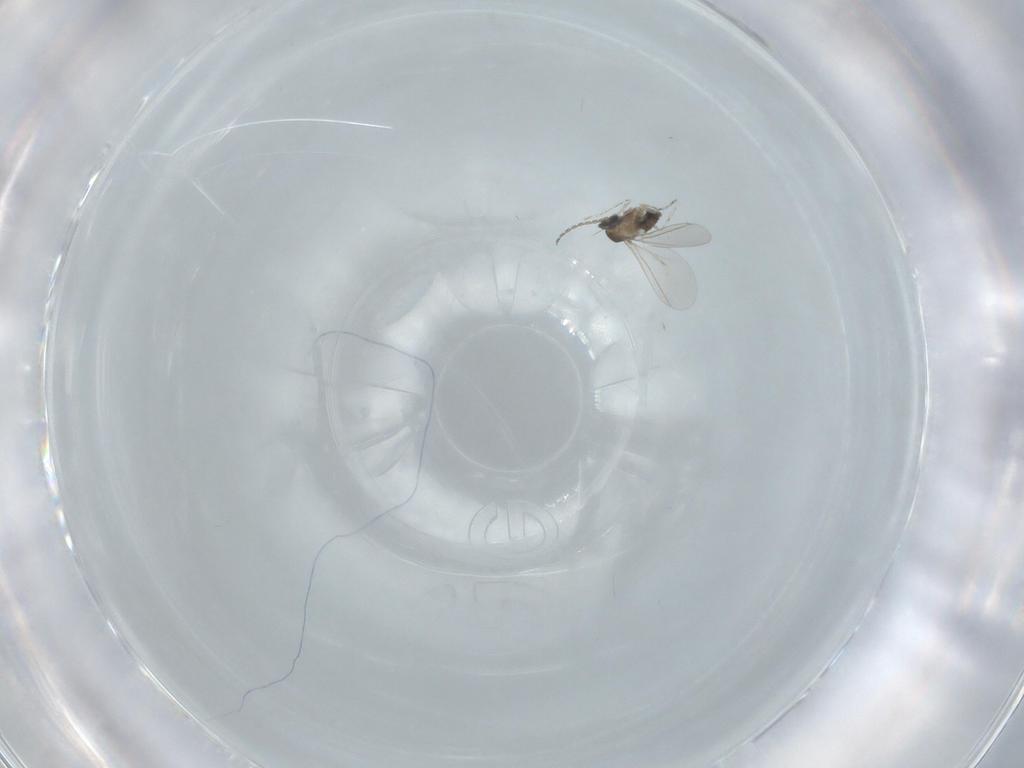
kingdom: Animalia
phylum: Arthropoda
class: Insecta
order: Diptera
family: Cecidomyiidae
